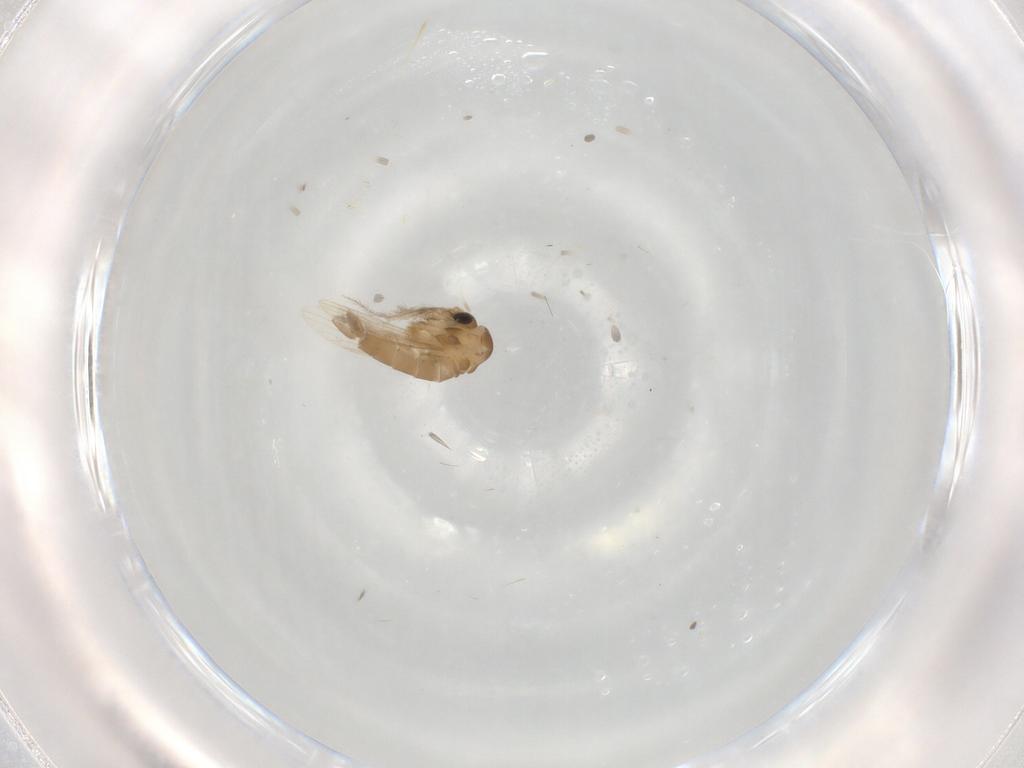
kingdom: Animalia
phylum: Arthropoda
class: Insecta
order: Diptera
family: Psychodidae
